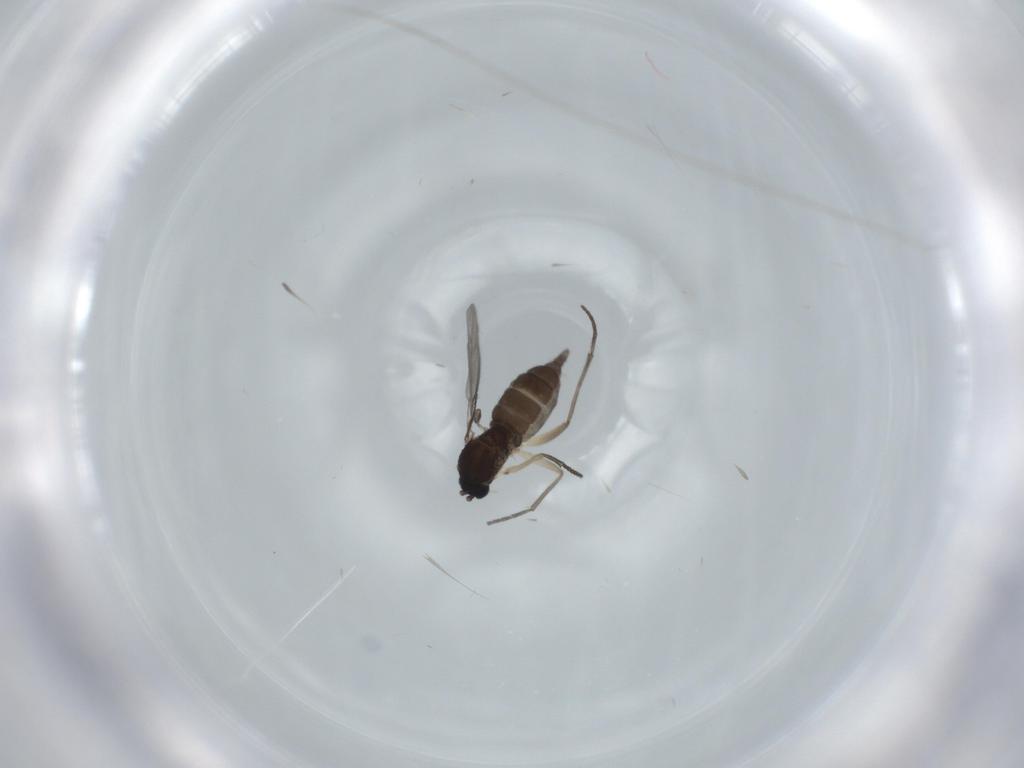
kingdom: Animalia
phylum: Arthropoda
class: Insecta
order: Diptera
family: Sciaridae
